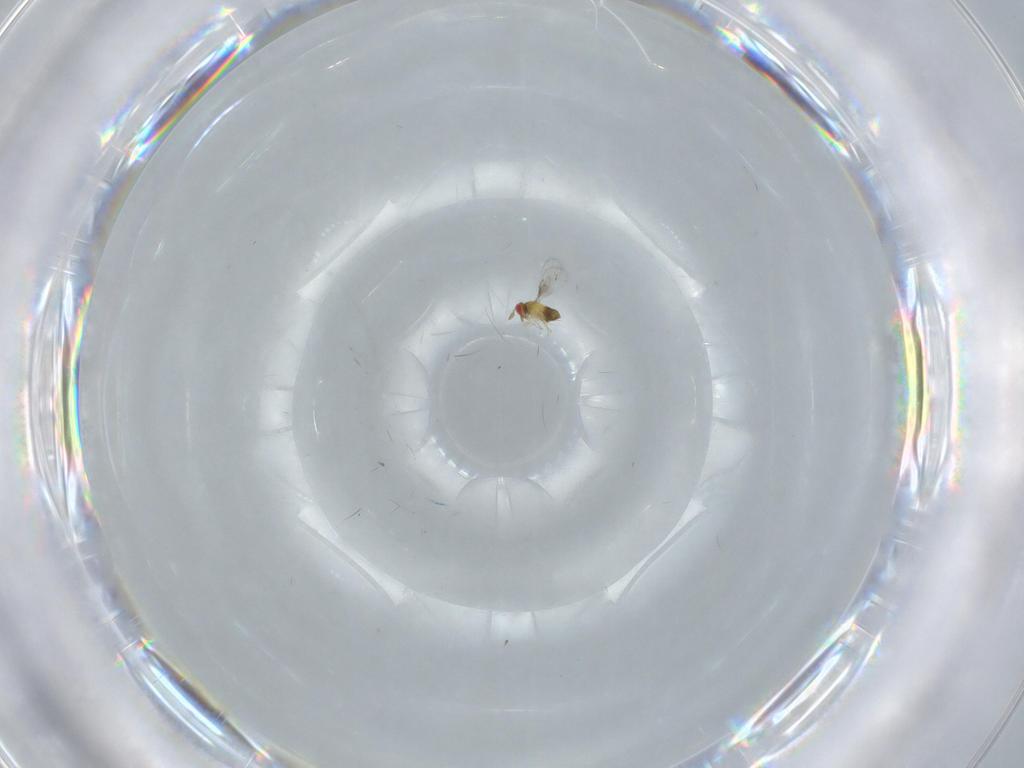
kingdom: Animalia
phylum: Arthropoda
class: Insecta
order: Hymenoptera
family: Trichogrammatidae
